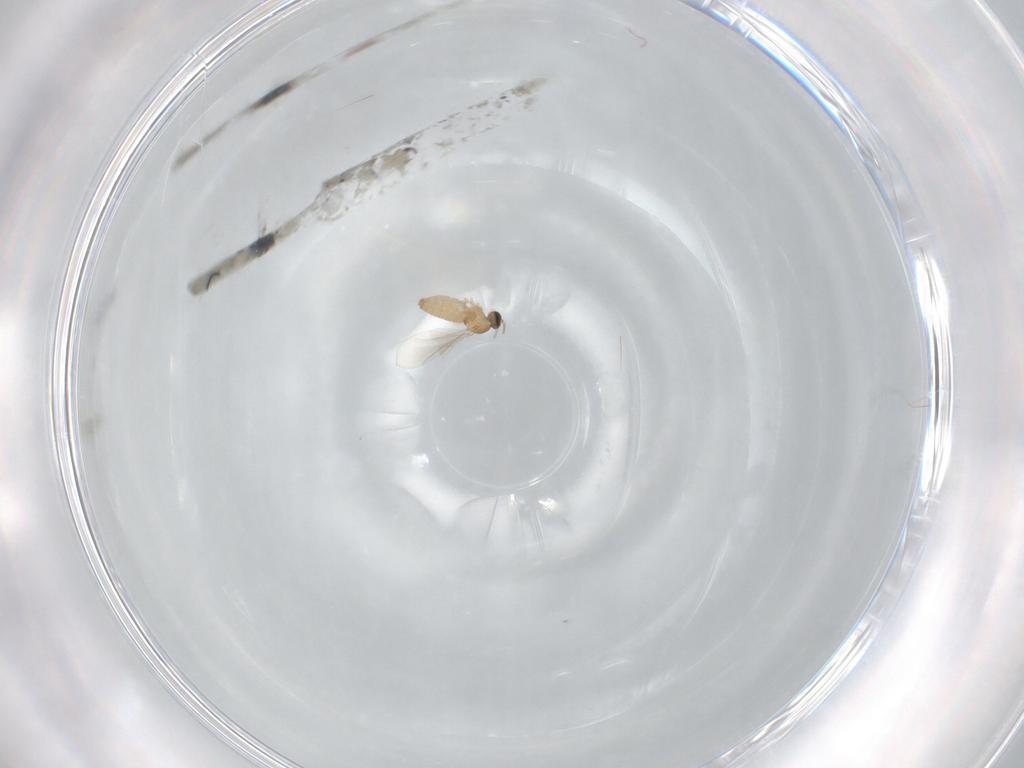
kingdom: Animalia
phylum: Arthropoda
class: Insecta
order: Diptera
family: Cecidomyiidae
